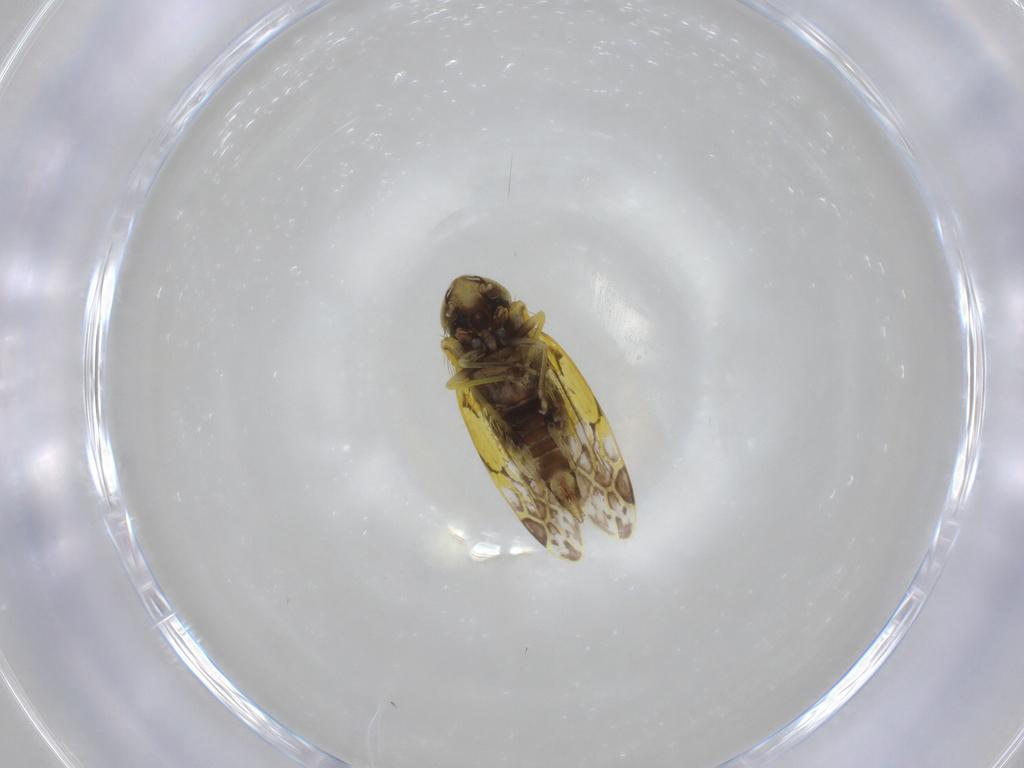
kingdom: Animalia
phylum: Arthropoda
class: Insecta
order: Hemiptera
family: Cicadellidae
